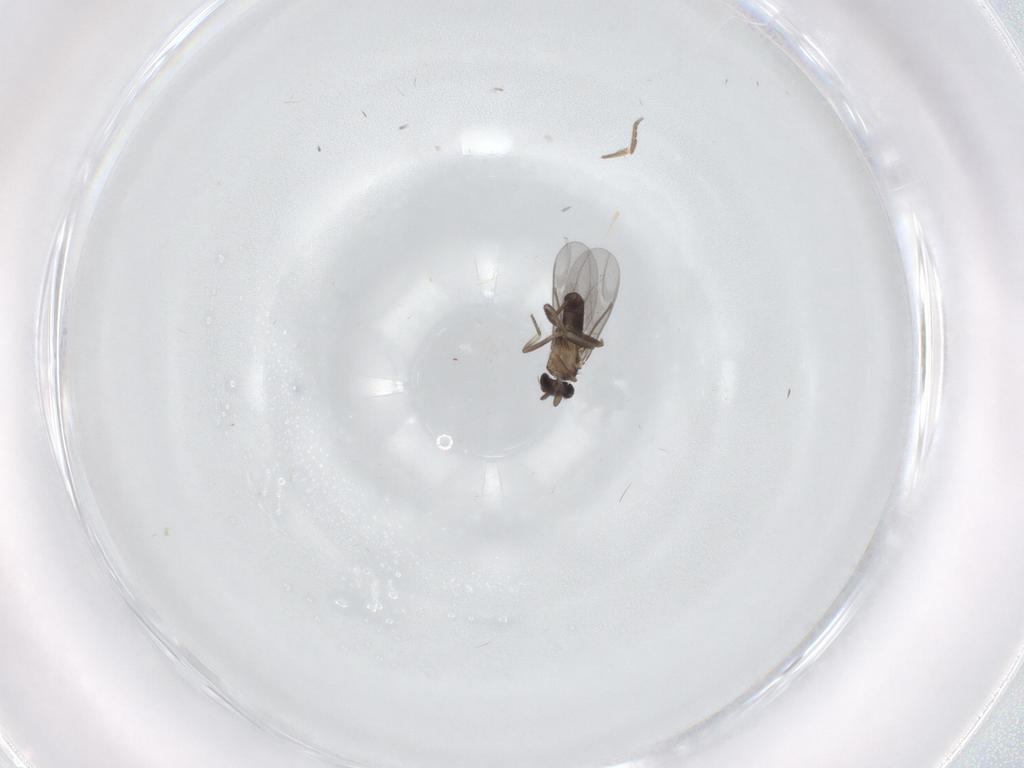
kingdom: Animalia
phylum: Arthropoda
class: Insecta
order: Diptera
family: Phoridae
